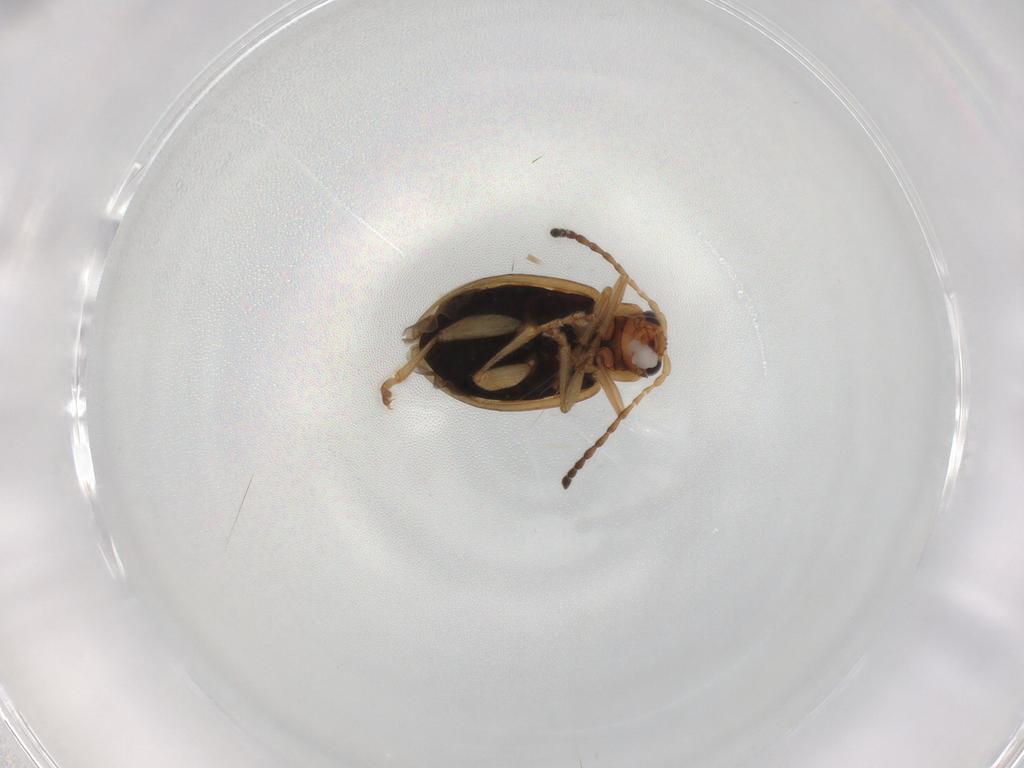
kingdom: Animalia
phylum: Arthropoda
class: Insecta
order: Coleoptera
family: Chrysomelidae
